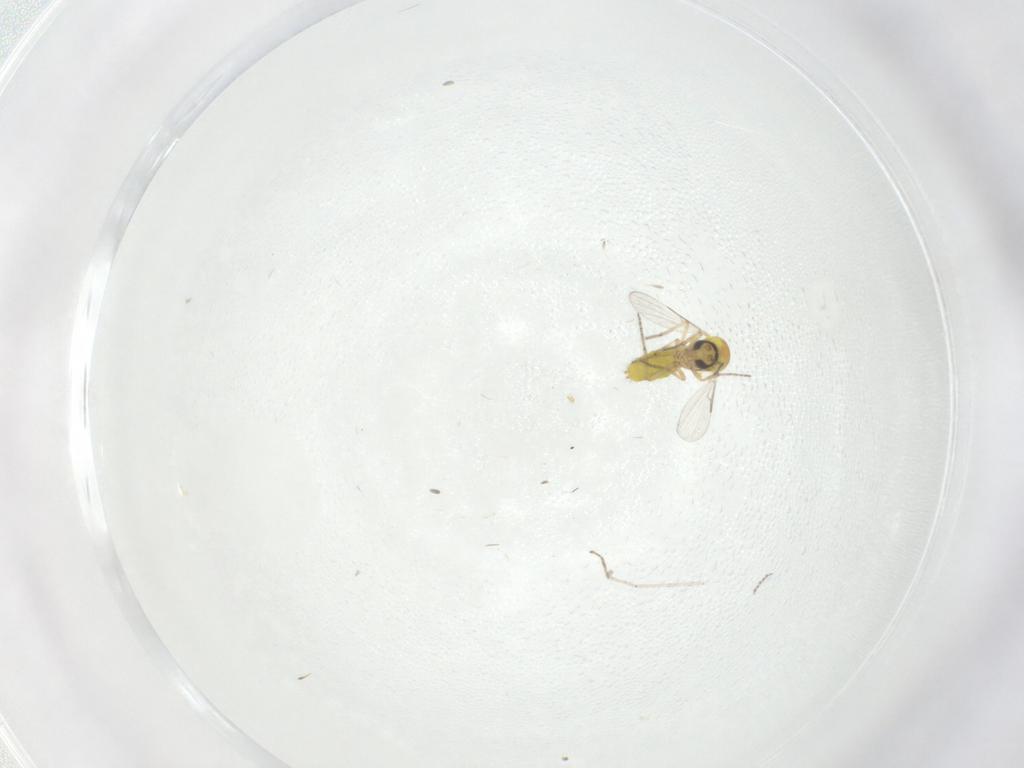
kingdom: Animalia
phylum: Arthropoda
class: Insecta
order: Diptera
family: Ceratopogonidae
